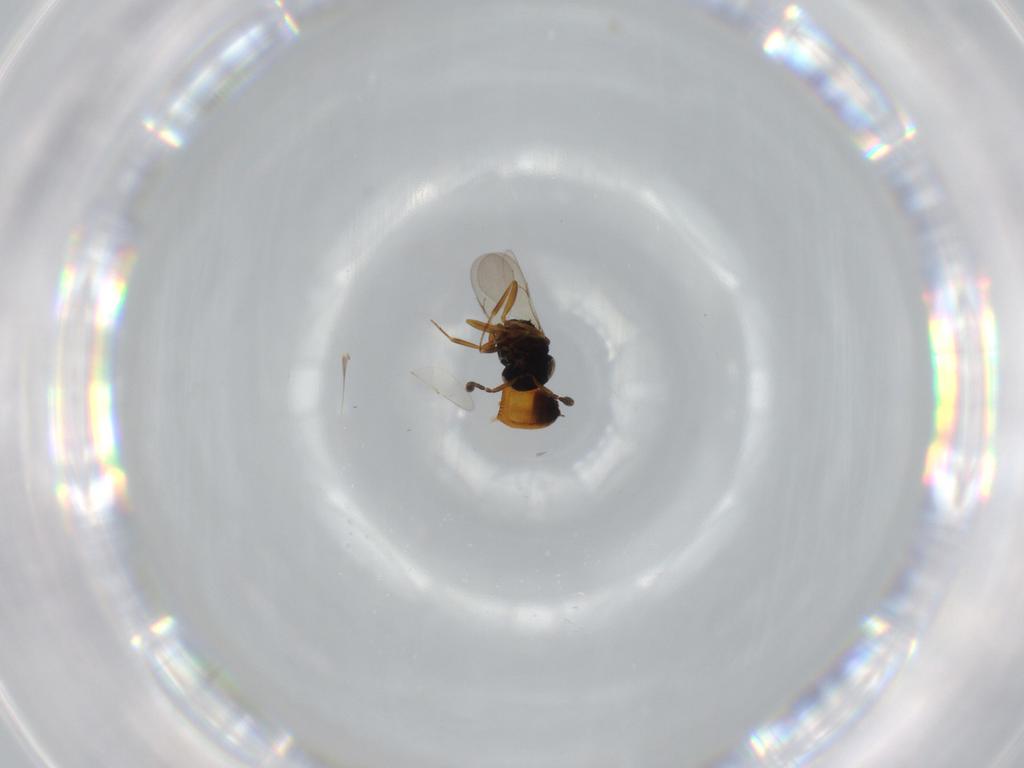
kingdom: Animalia
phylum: Arthropoda
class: Insecta
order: Hymenoptera
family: Scelionidae
